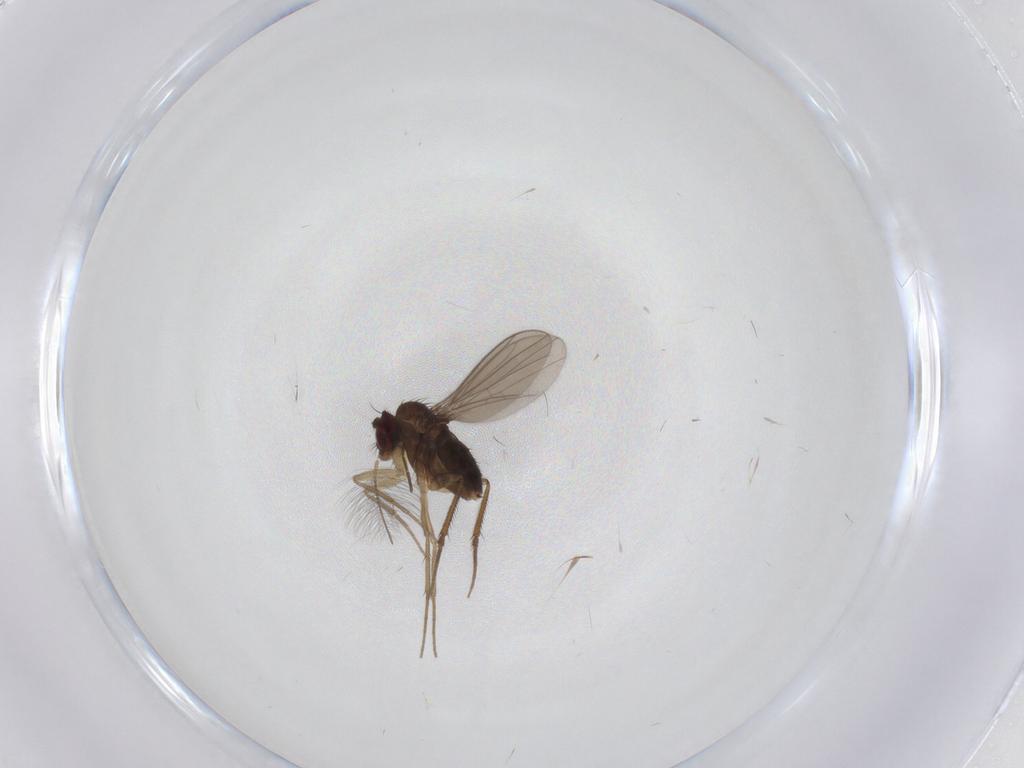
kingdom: Animalia
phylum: Arthropoda
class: Insecta
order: Diptera
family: Dolichopodidae
